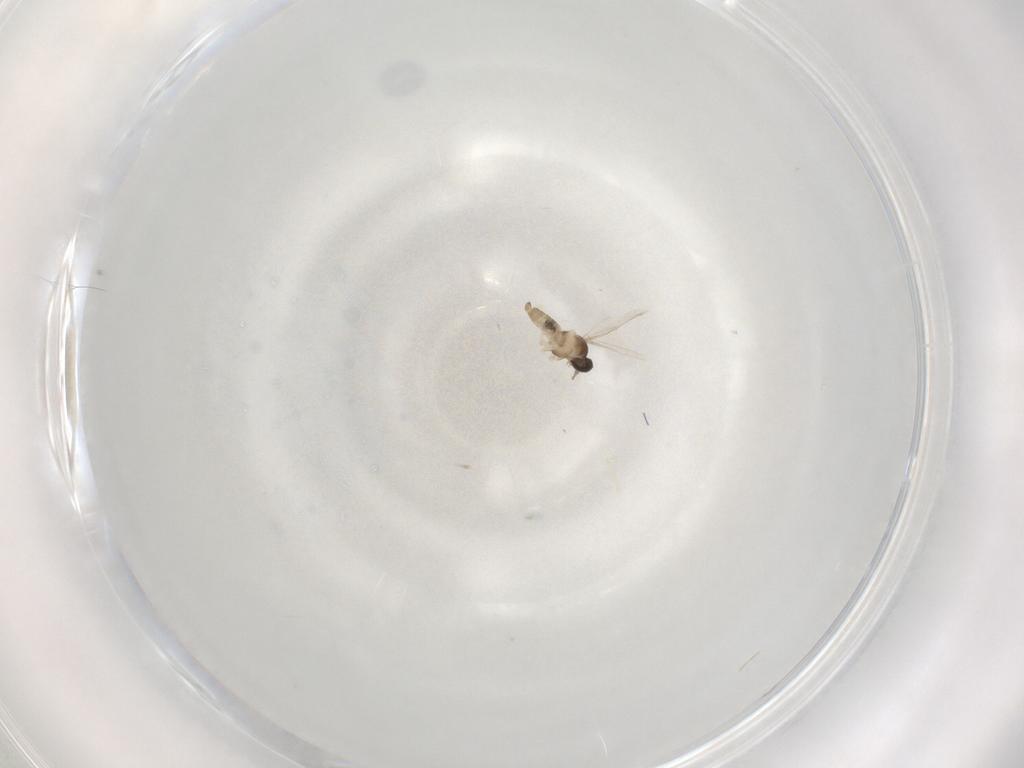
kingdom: Animalia
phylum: Arthropoda
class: Insecta
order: Diptera
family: Cecidomyiidae
